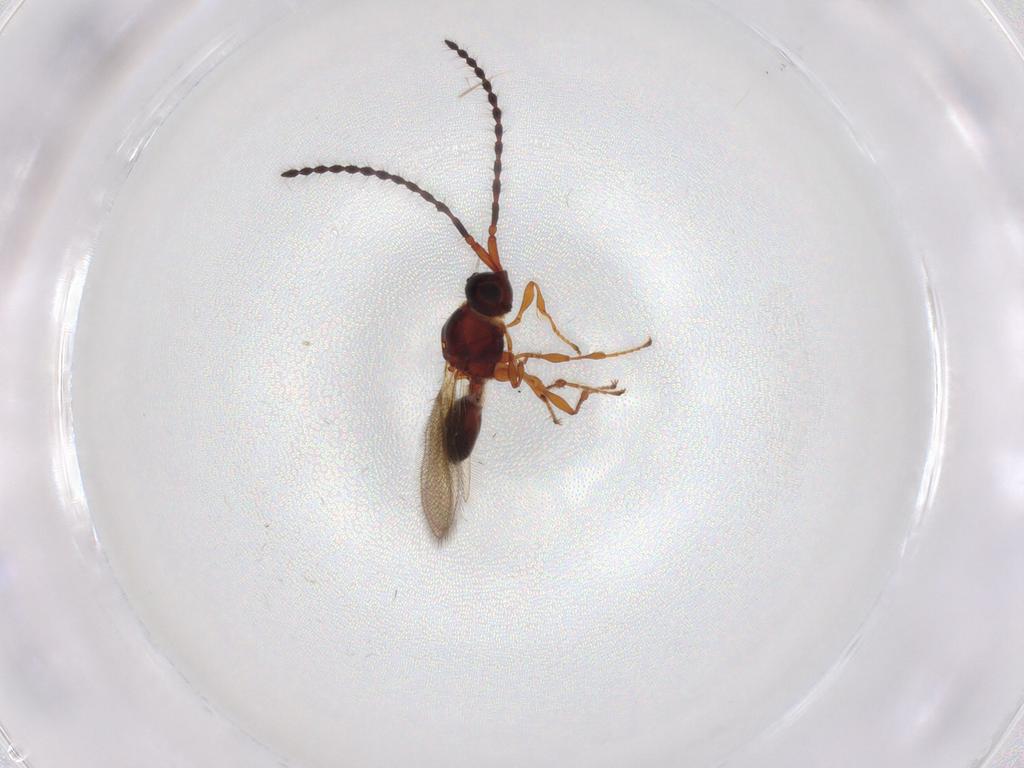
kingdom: Animalia
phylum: Arthropoda
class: Insecta
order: Hymenoptera
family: Diapriidae
